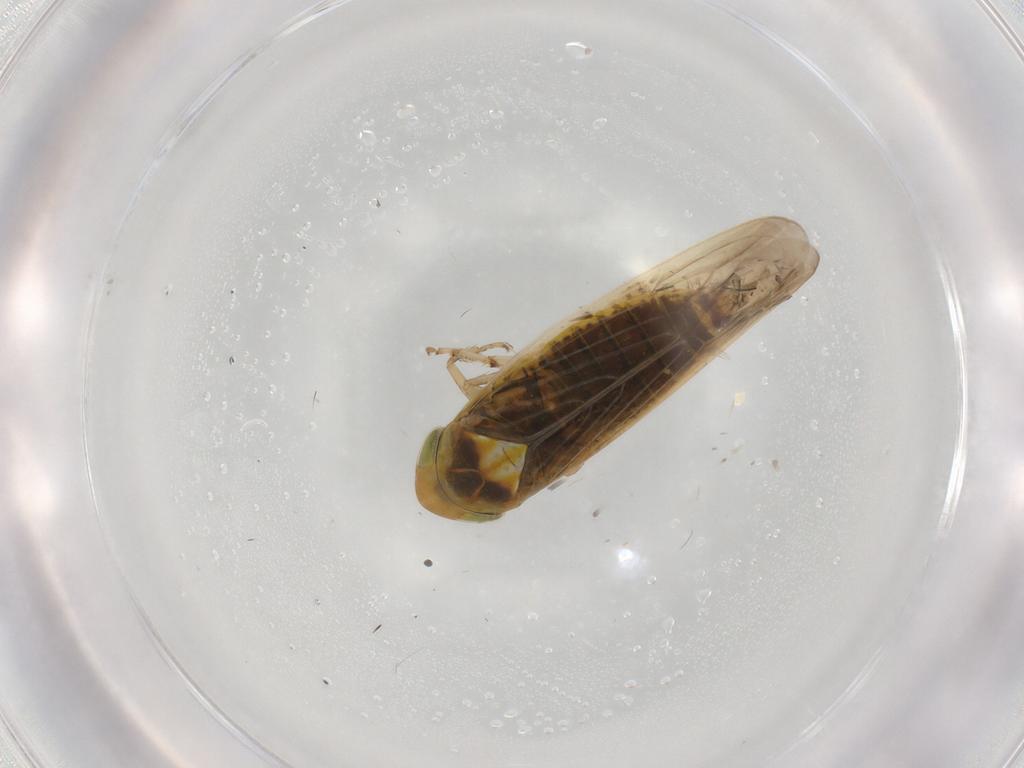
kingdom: Animalia
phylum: Arthropoda
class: Insecta
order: Hemiptera
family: Cicadellidae
